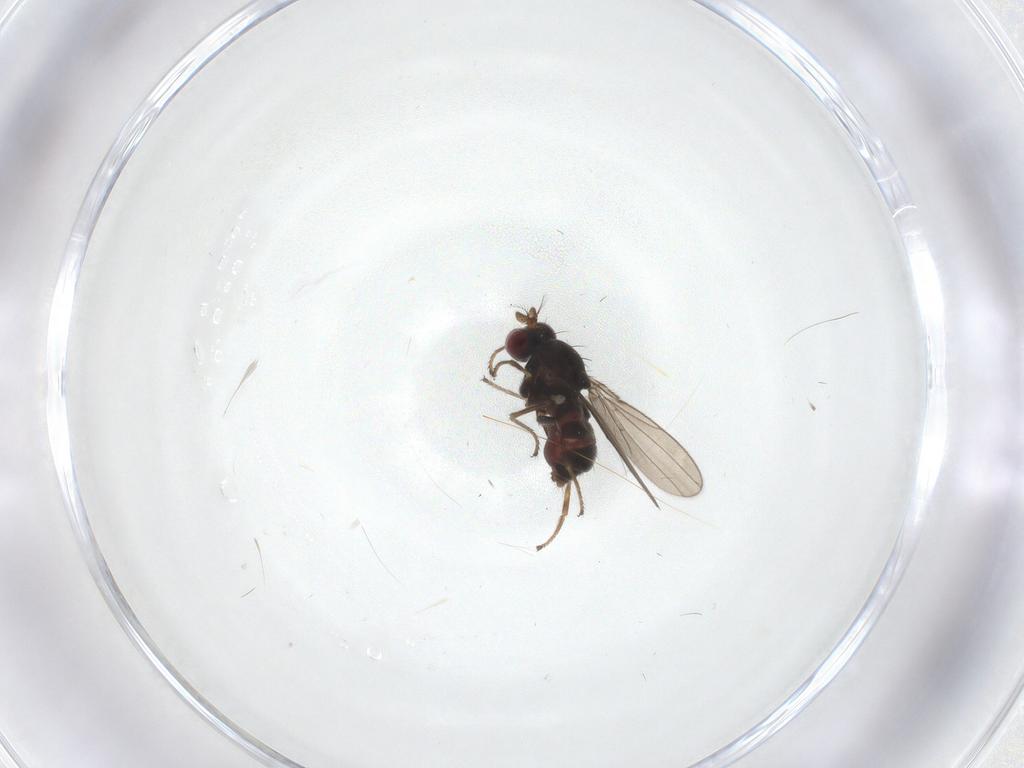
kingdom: Animalia
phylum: Arthropoda
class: Insecta
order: Diptera
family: Ephydridae
